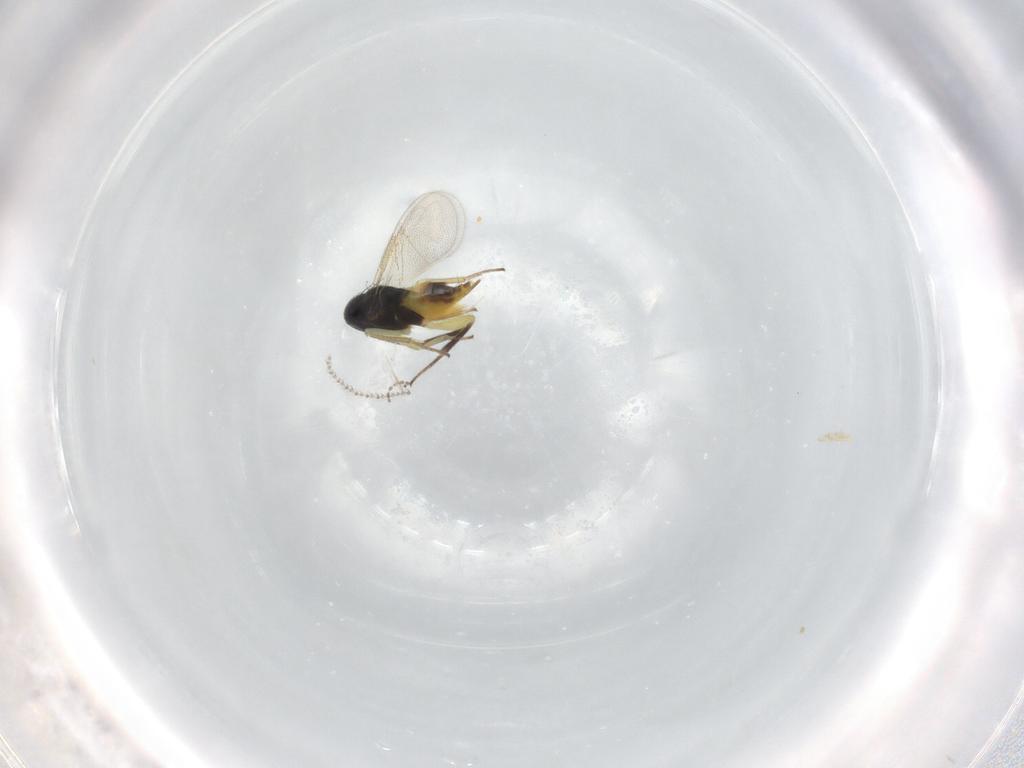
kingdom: Animalia
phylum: Arthropoda
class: Insecta
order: Hymenoptera
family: Aphelinidae
